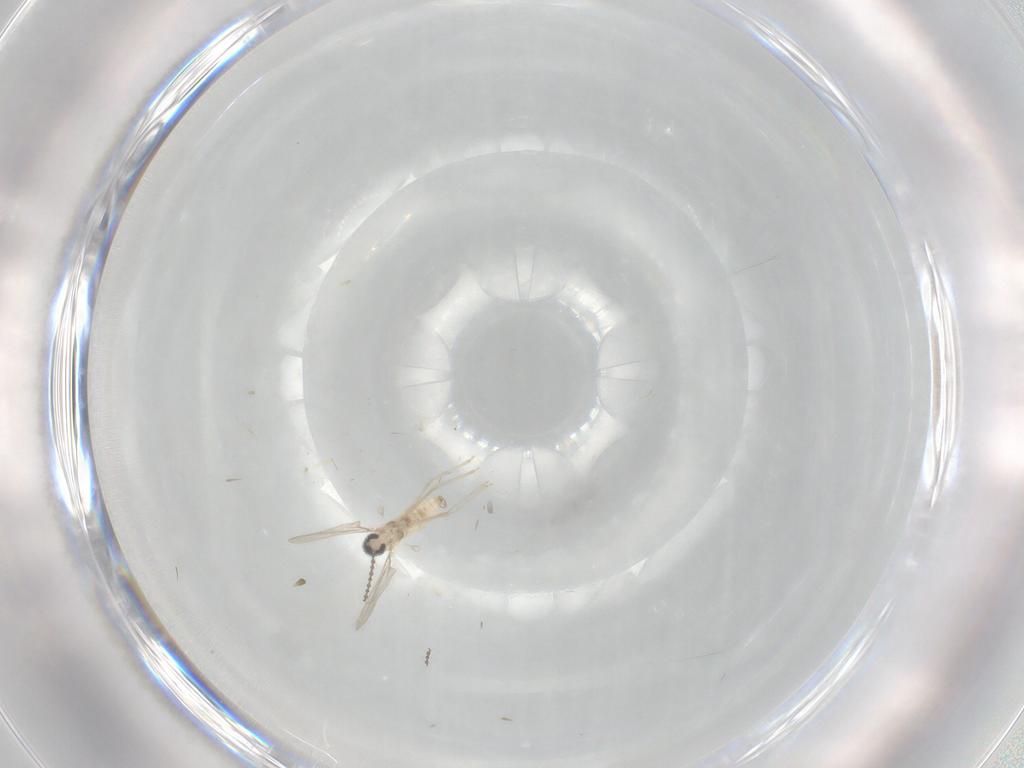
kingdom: Animalia
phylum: Arthropoda
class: Insecta
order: Diptera
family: Cecidomyiidae
